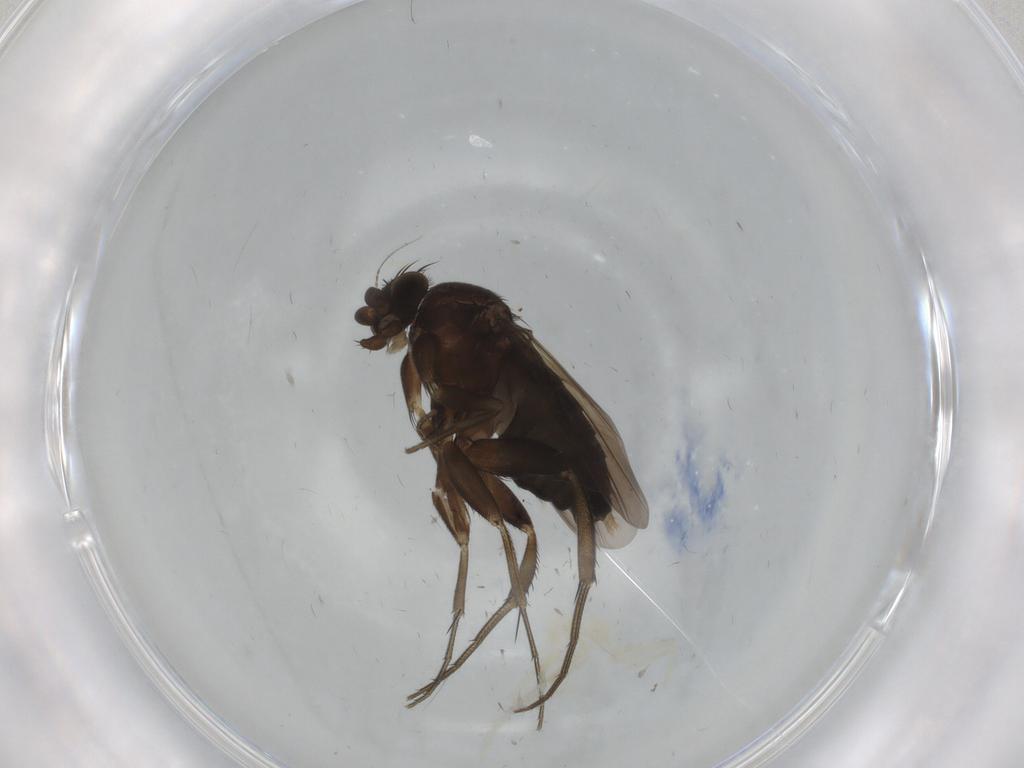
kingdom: Animalia
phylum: Arthropoda
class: Insecta
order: Diptera
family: Phoridae
